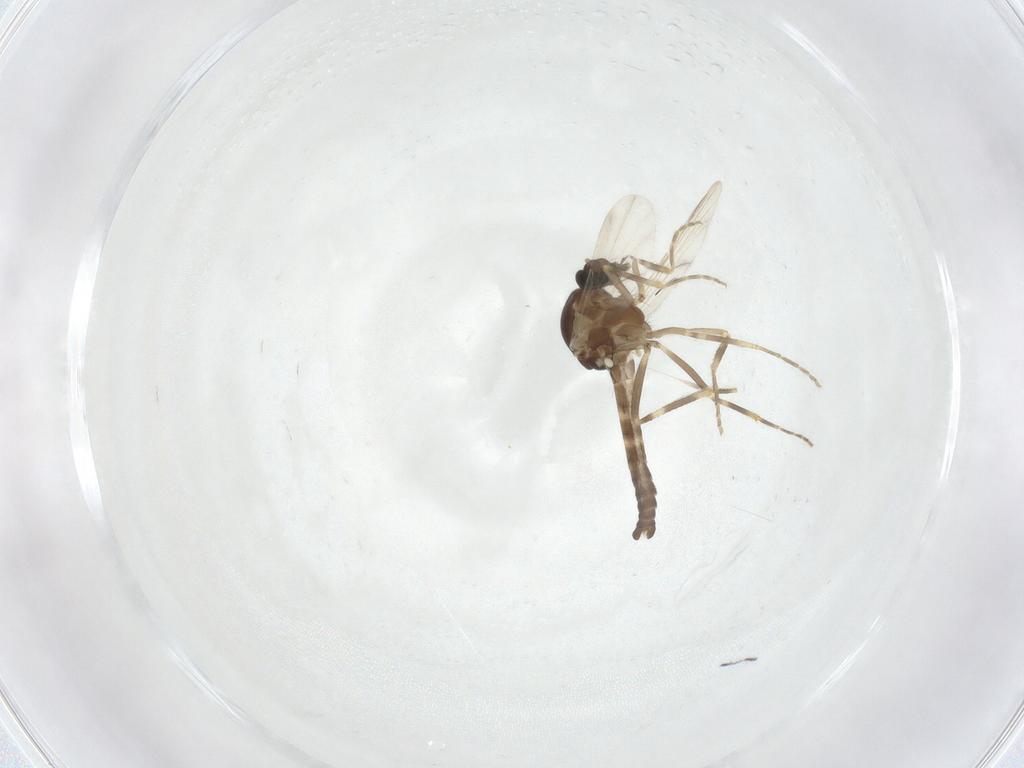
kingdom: Animalia
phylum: Arthropoda
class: Insecta
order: Diptera
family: Ceratopogonidae
